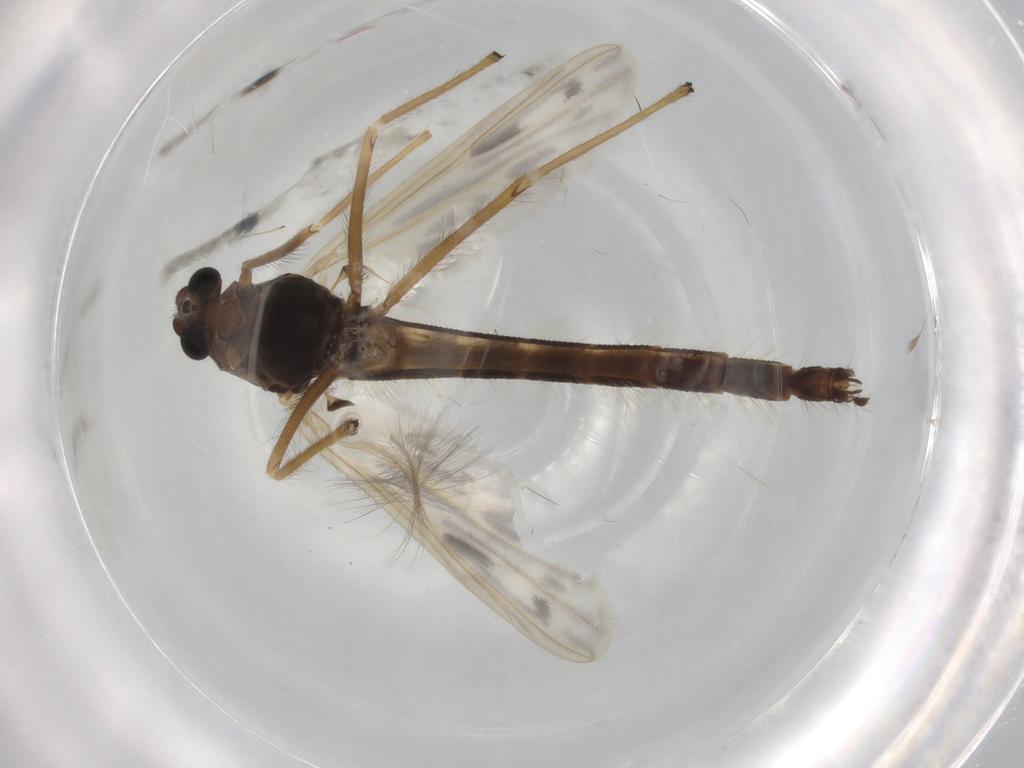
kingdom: Animalia
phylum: Arthropoda
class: Insecta
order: Diptera
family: Chironomidae
